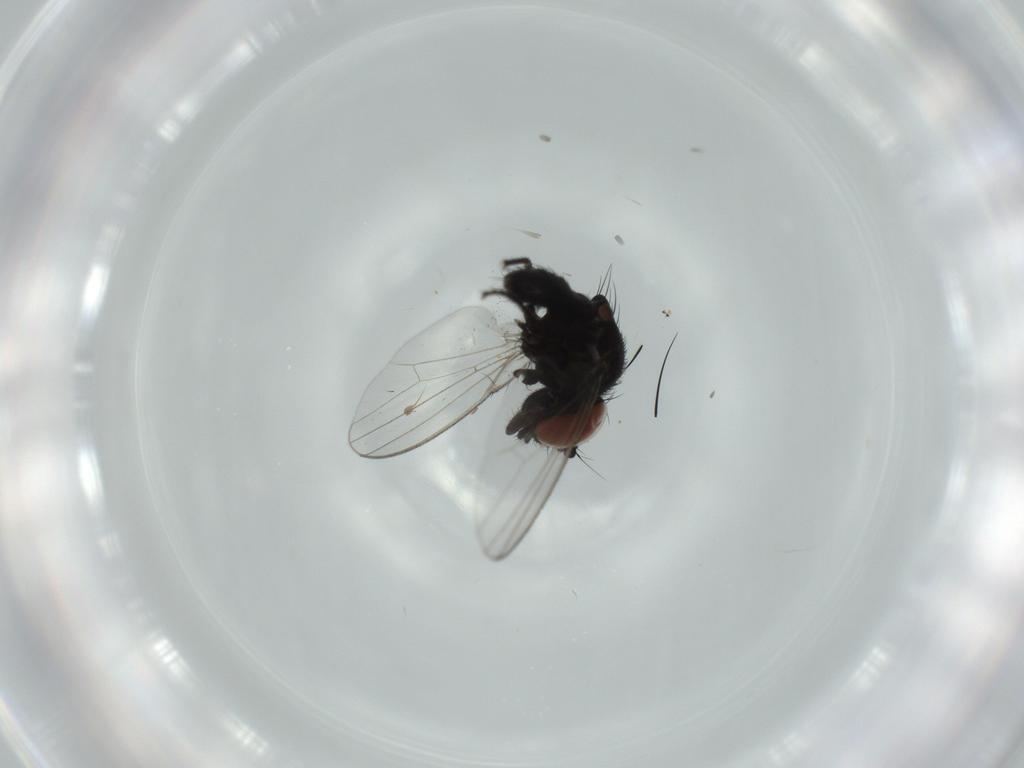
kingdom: Animalia
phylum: Arthropoda
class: Insecta
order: Diptera
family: Milichiidae
